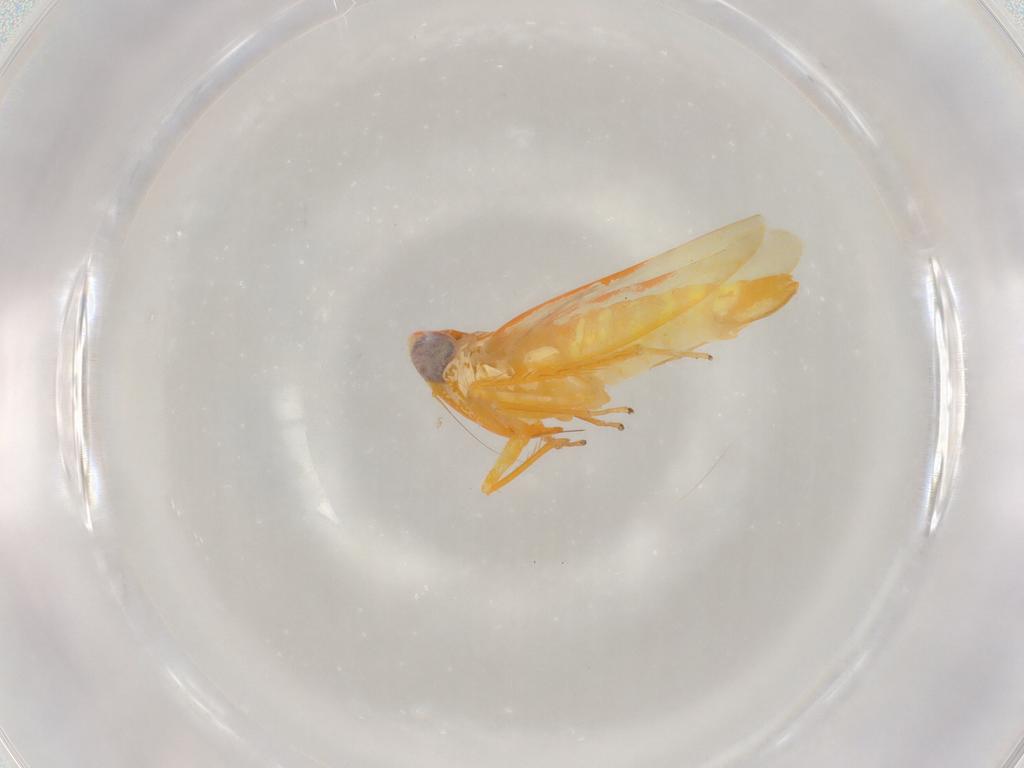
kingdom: Animalia
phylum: Arthropoda
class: Insecta
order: Hemiptera
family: Cicadellidae
